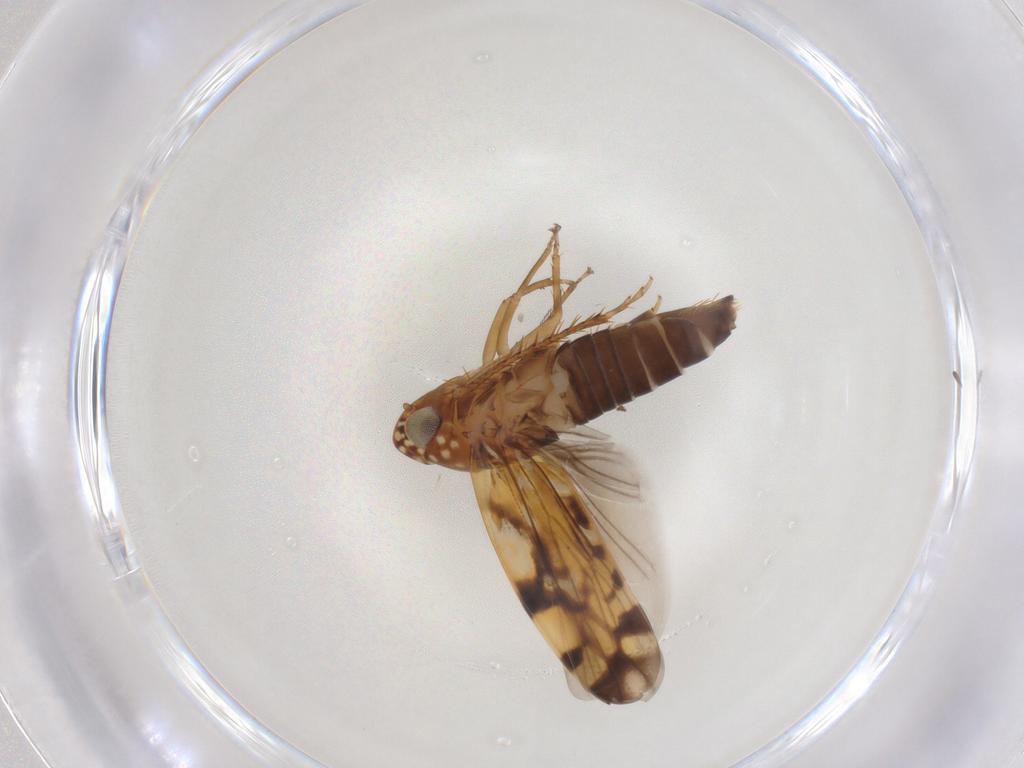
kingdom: Animalia
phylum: Arthropoda
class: Insecta
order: Hemiptera
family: Cicadellidae
